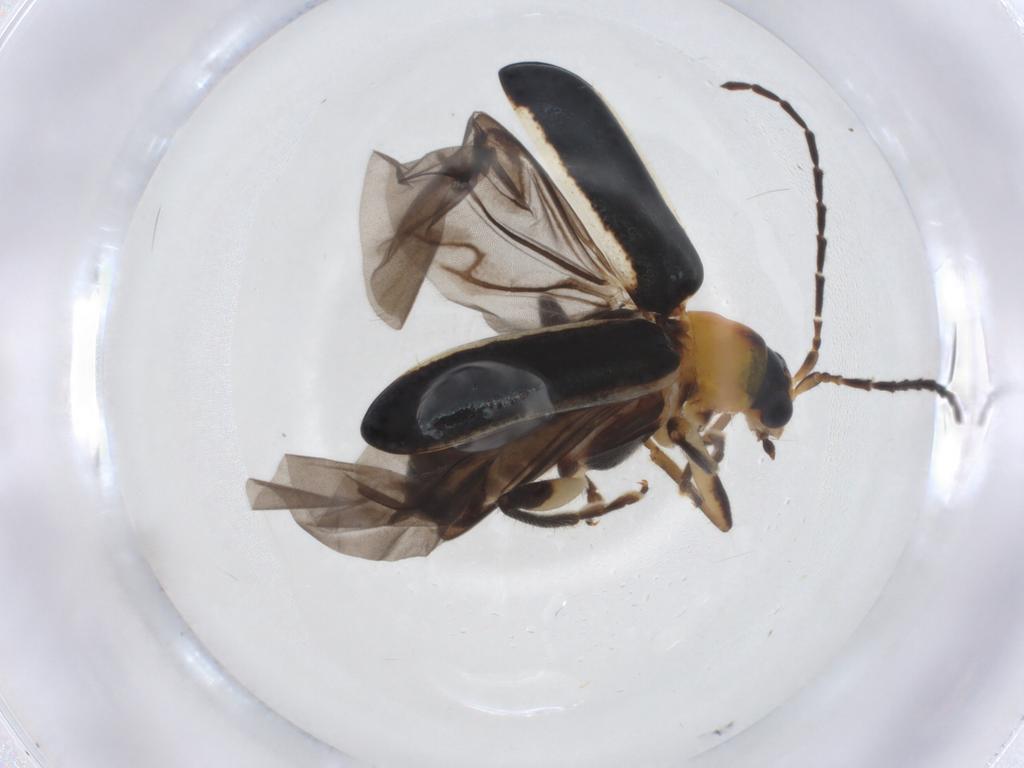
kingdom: Animalia
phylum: Arthropoda
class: Insecta
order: Coleoptera
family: Chrysomelidae
